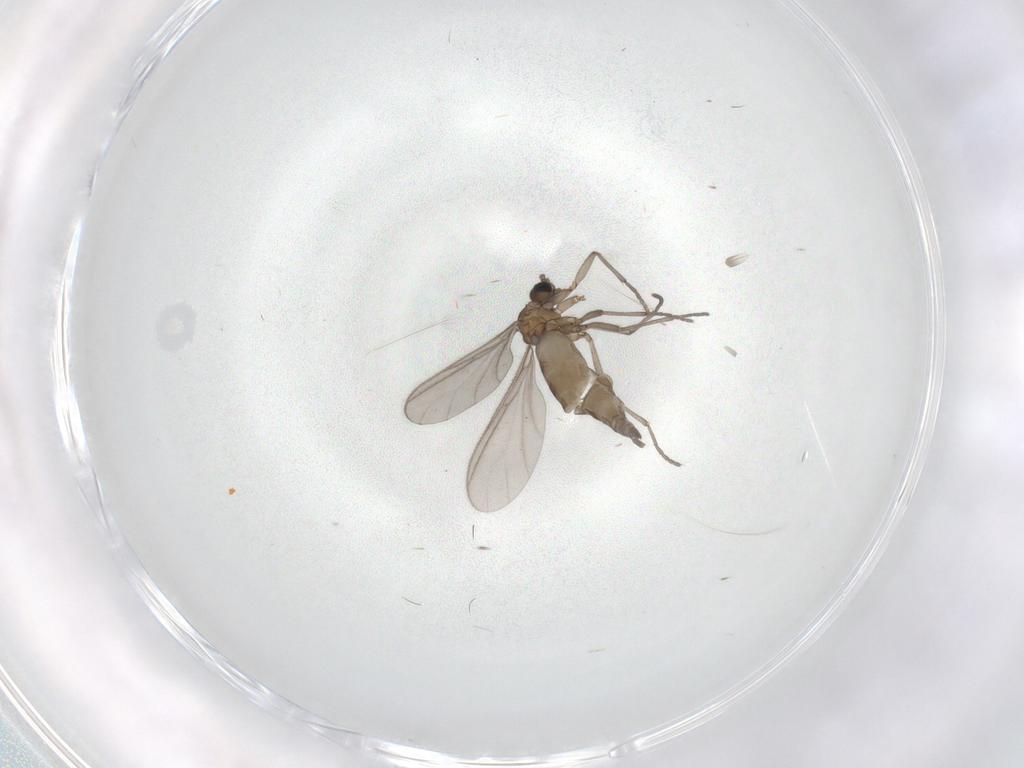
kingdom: Animalia
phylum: Arthropoda
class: Insecta
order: Diptera
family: Sciaridae
